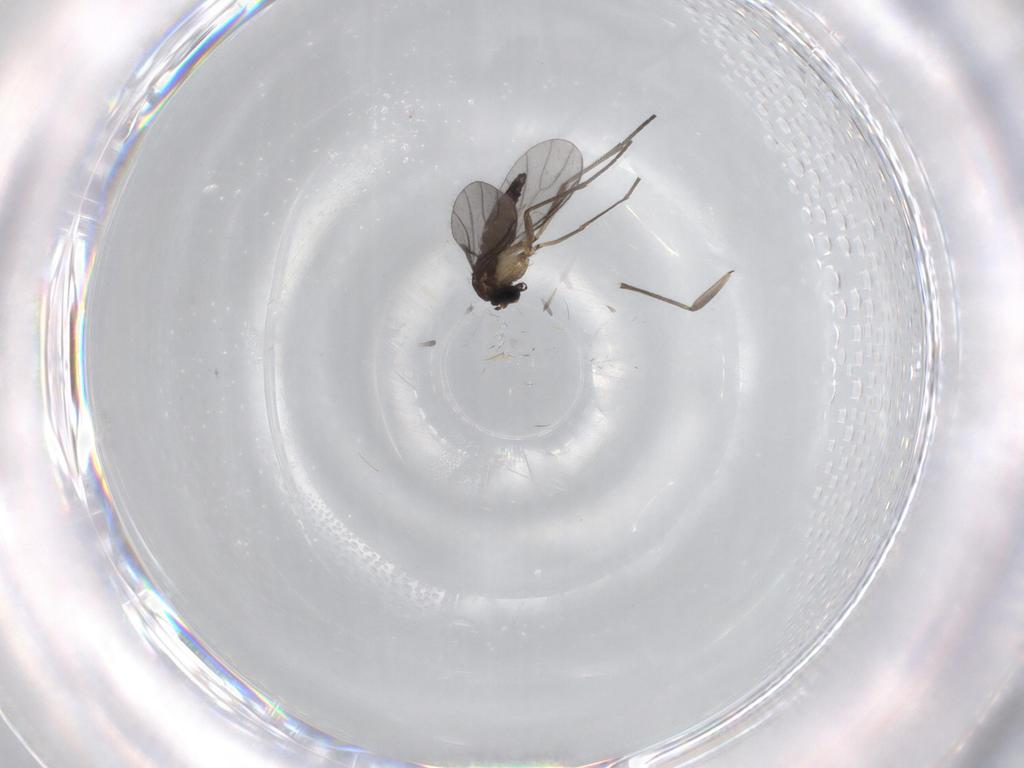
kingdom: Animalia
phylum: Arthropoda
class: Insecta
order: Diptera
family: Sciaridae
